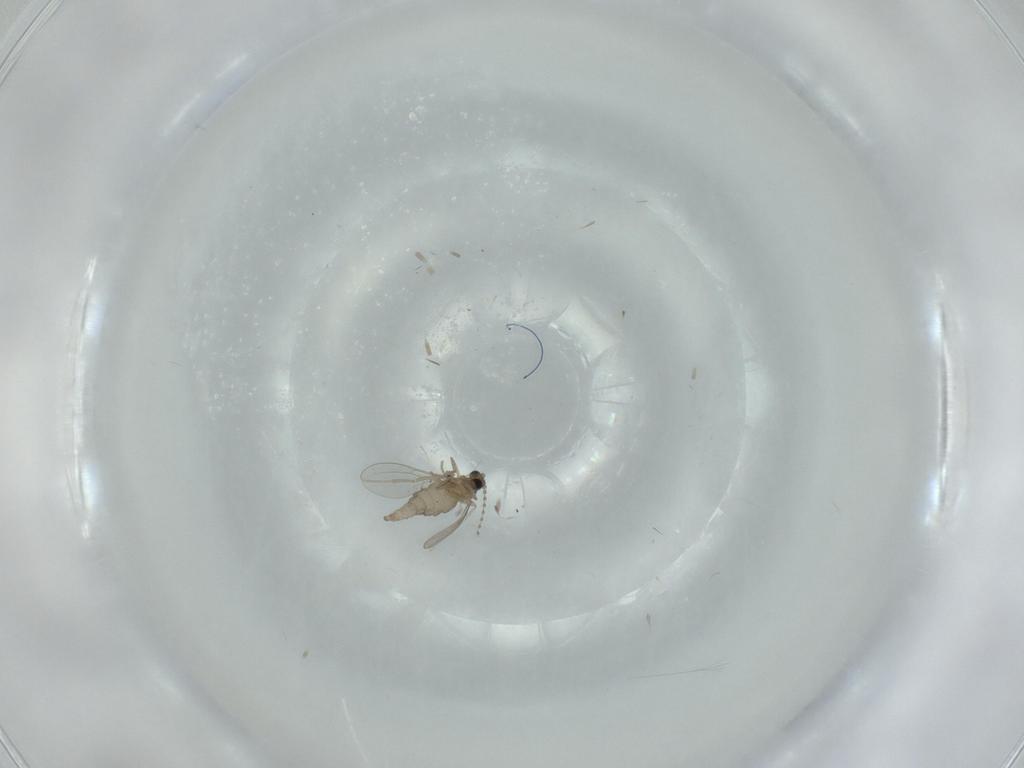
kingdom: Animalia
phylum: Arthropoda
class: Insecta
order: Diptera
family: Cecidomyiidae
